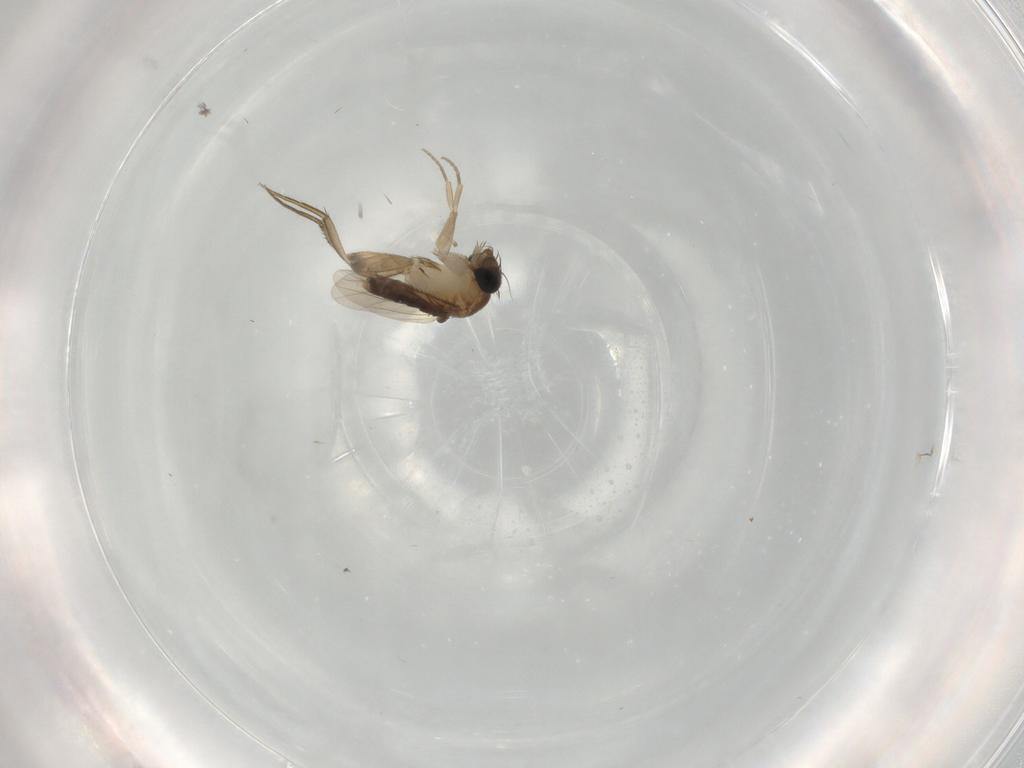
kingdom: Animalia
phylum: Arthropoda
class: Insecta
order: Diptera
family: Phoridae
